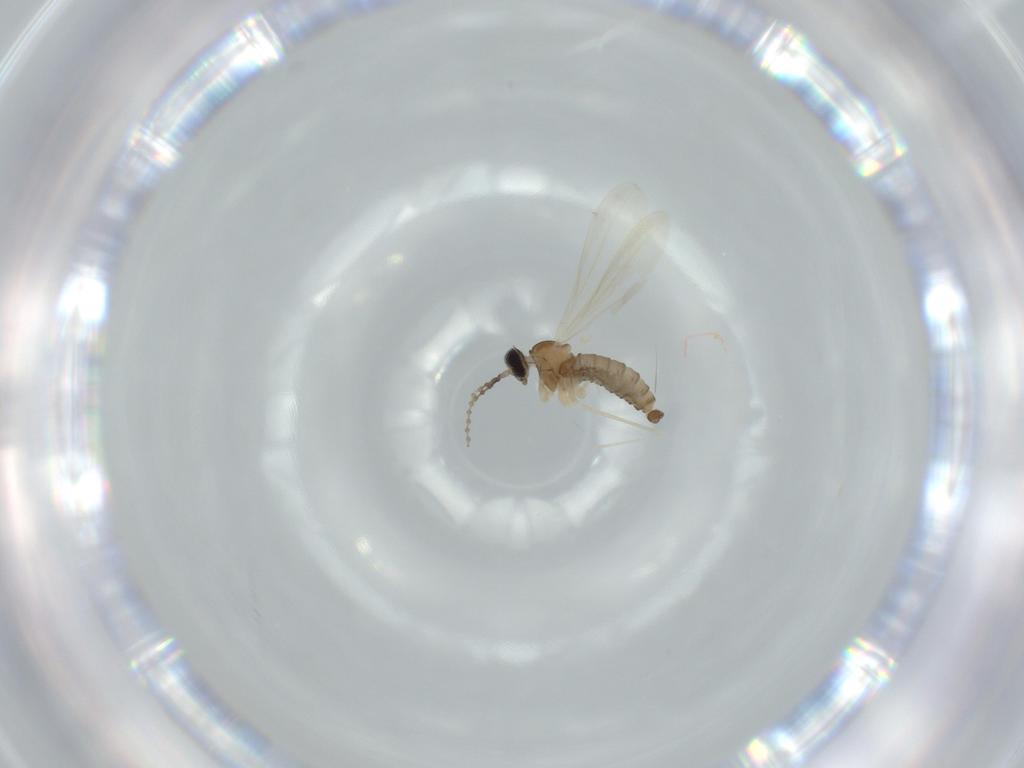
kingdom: Animalia
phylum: Arthropoda
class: Insecta
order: Diptera
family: Cecidomyiidae
